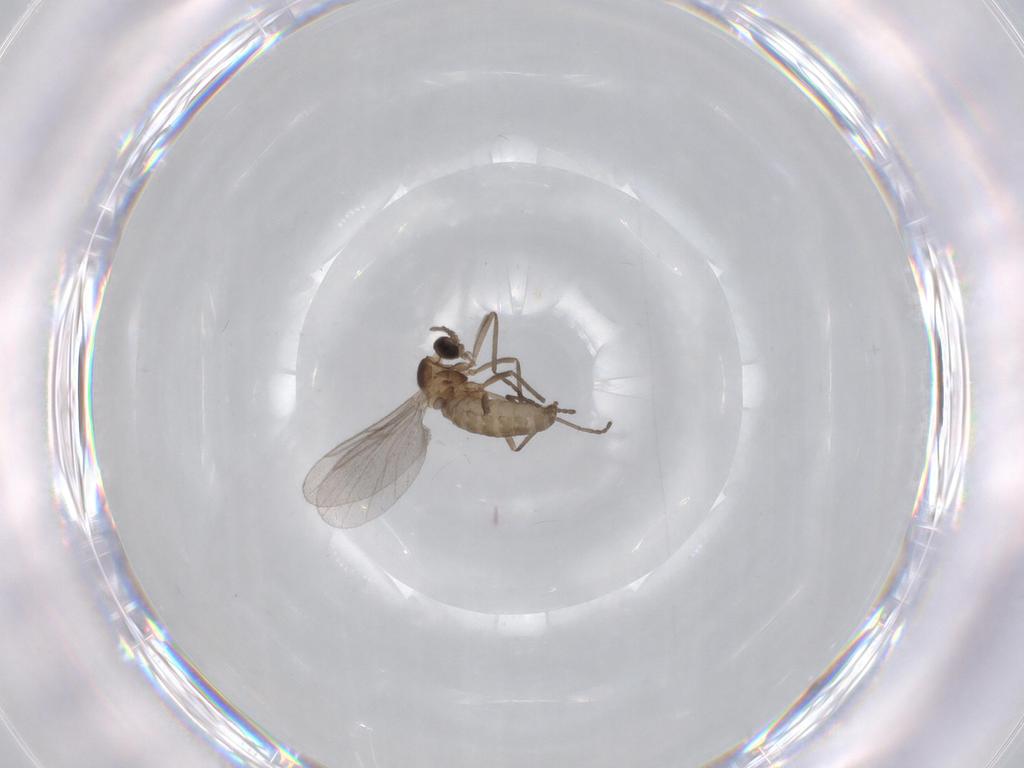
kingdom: Animalia
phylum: Arthropoda
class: Insecta
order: Diptera
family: Cecidomyiidae
